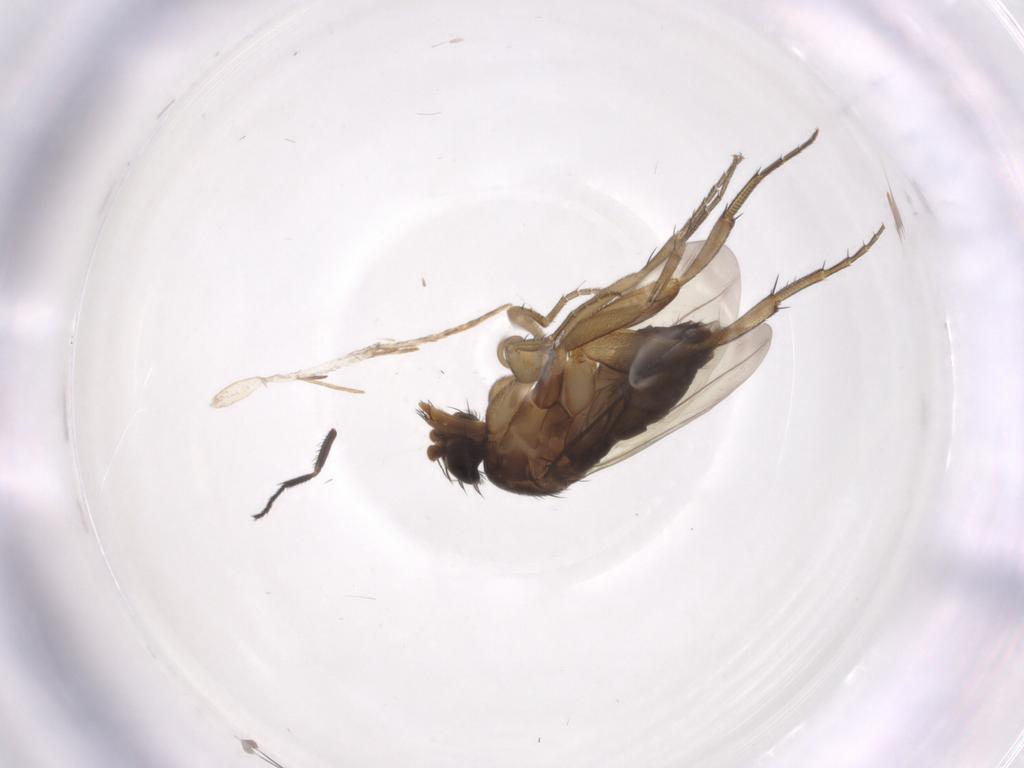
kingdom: Animalia
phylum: Arthropoda
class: Insecta
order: Diptera
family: Phoridae
